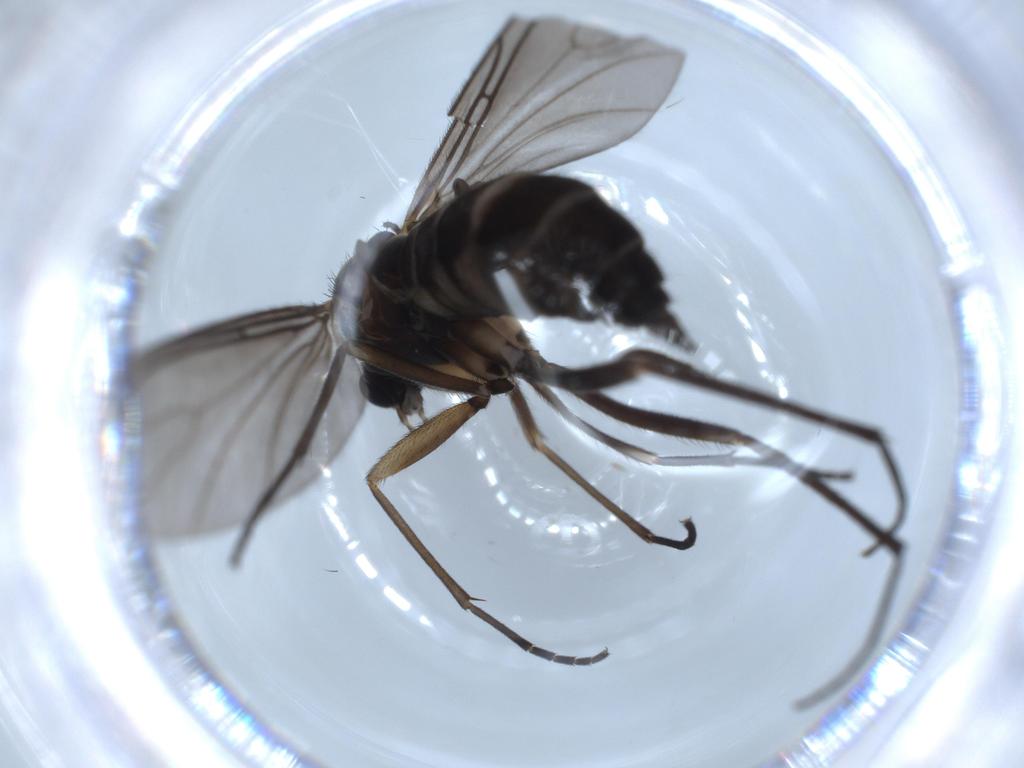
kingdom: Animalia
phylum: Arthropoda
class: Insecta
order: Diptera
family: Sciaridae
